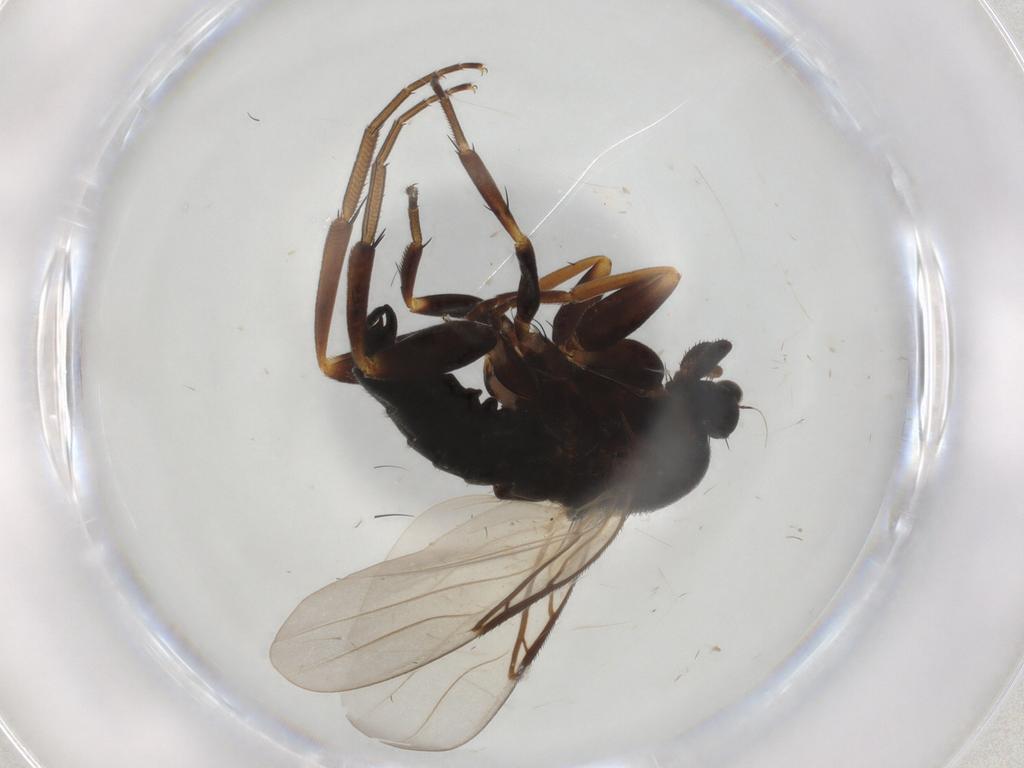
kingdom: Animalia
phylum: Arthropoda
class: Insecta
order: Diptera
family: Phoridae
